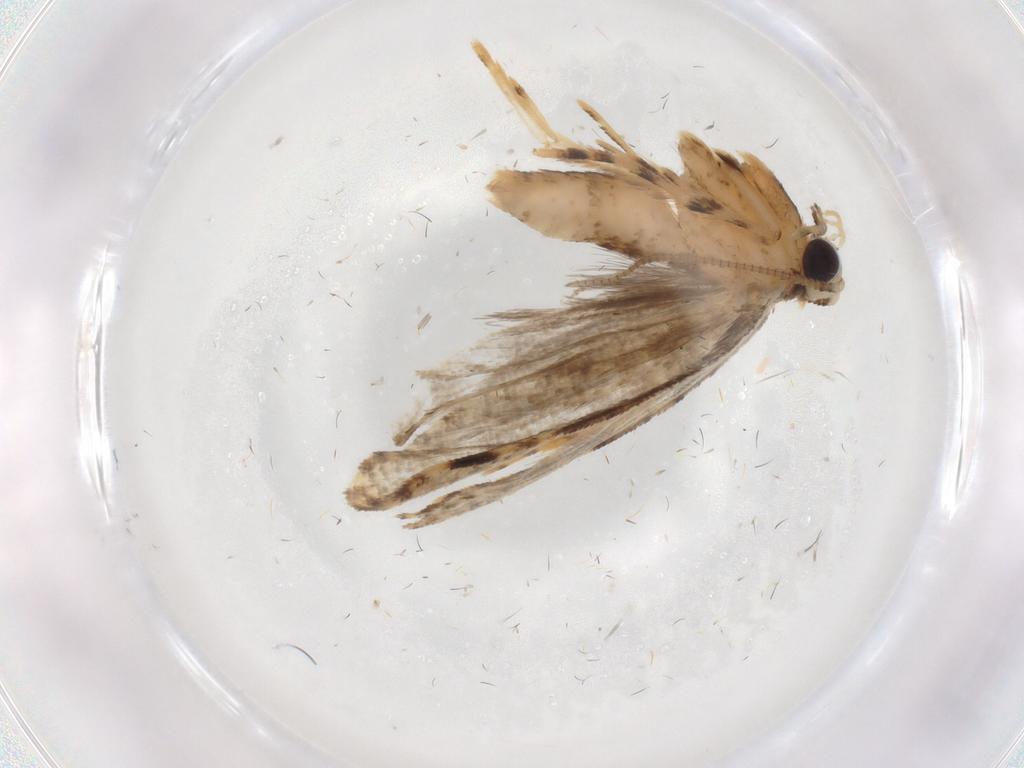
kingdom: Animalia
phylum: Arthropoda
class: Insecta
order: Lepidoptera
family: Tineidae
